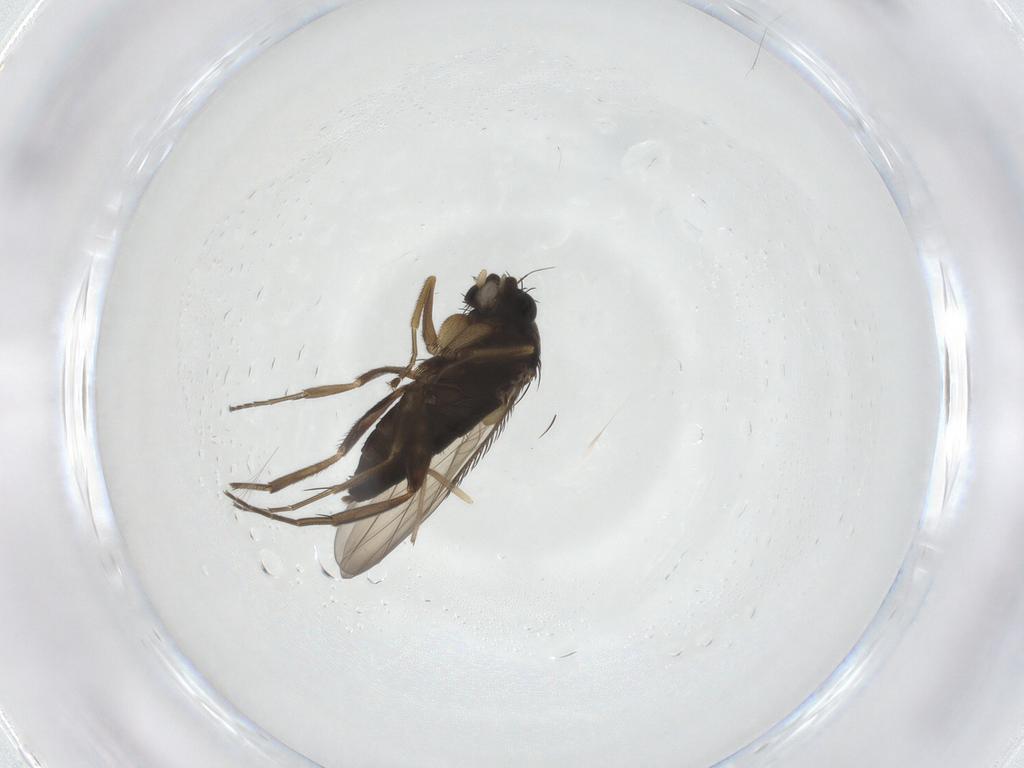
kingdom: Animalia
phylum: Arthropoda
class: Insecta
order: Diptera
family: Phoridae
